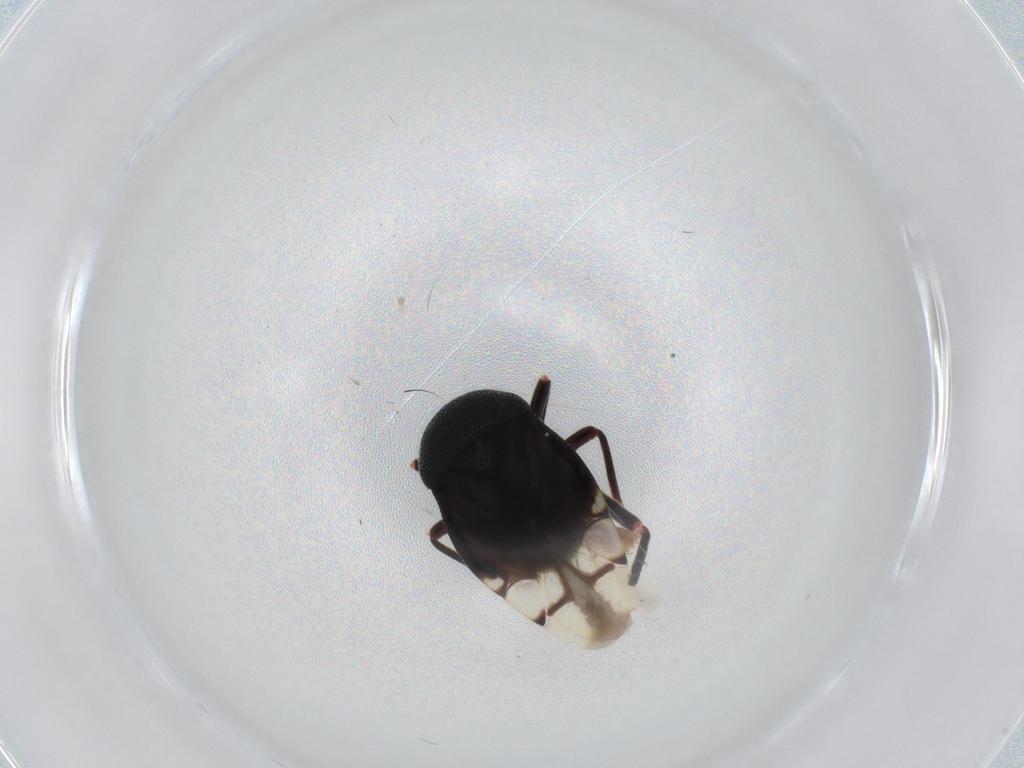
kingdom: Animalia
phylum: Arthropoda
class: Insecta
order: Hemiptera
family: Miridae
